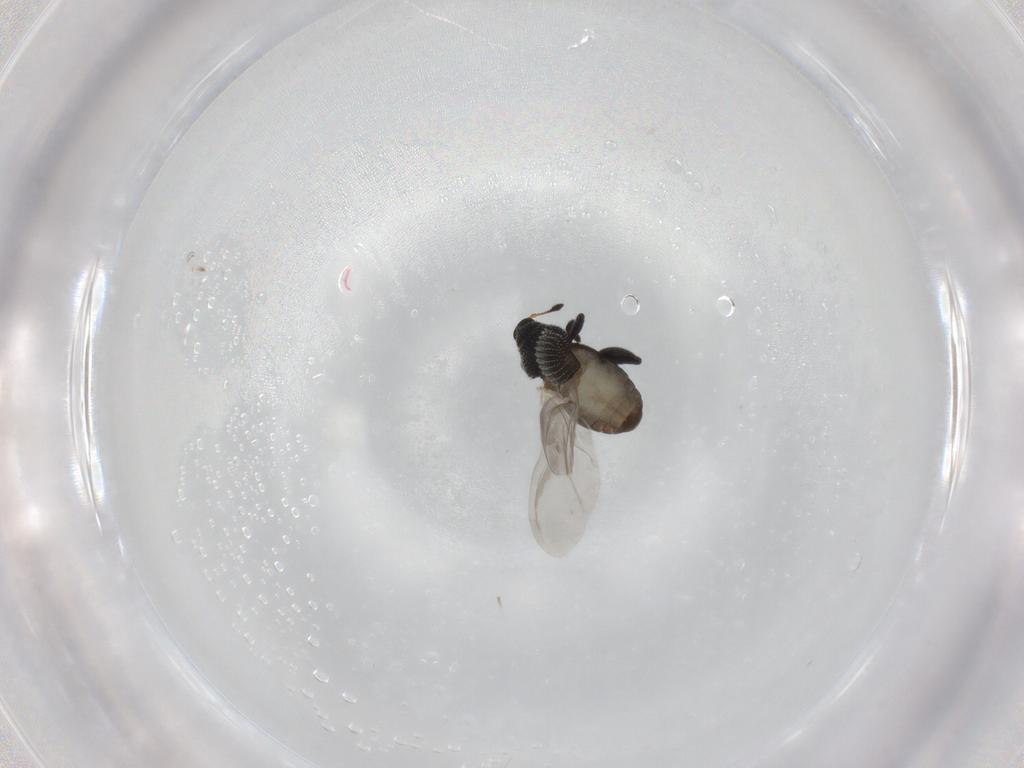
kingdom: Animalia
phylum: Arthropoda
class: Insecta
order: Coleoptera
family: Curculionidae
